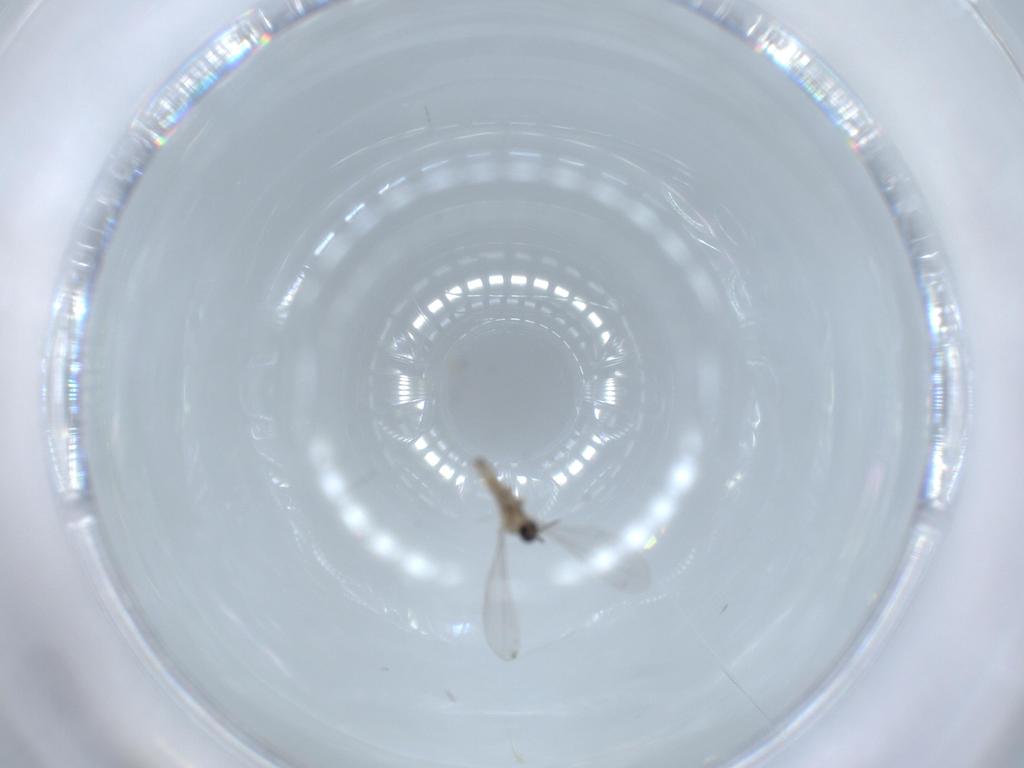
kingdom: Animalia
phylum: Arthropoda
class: Insecta
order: Diptera
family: Cecidomyiidae
